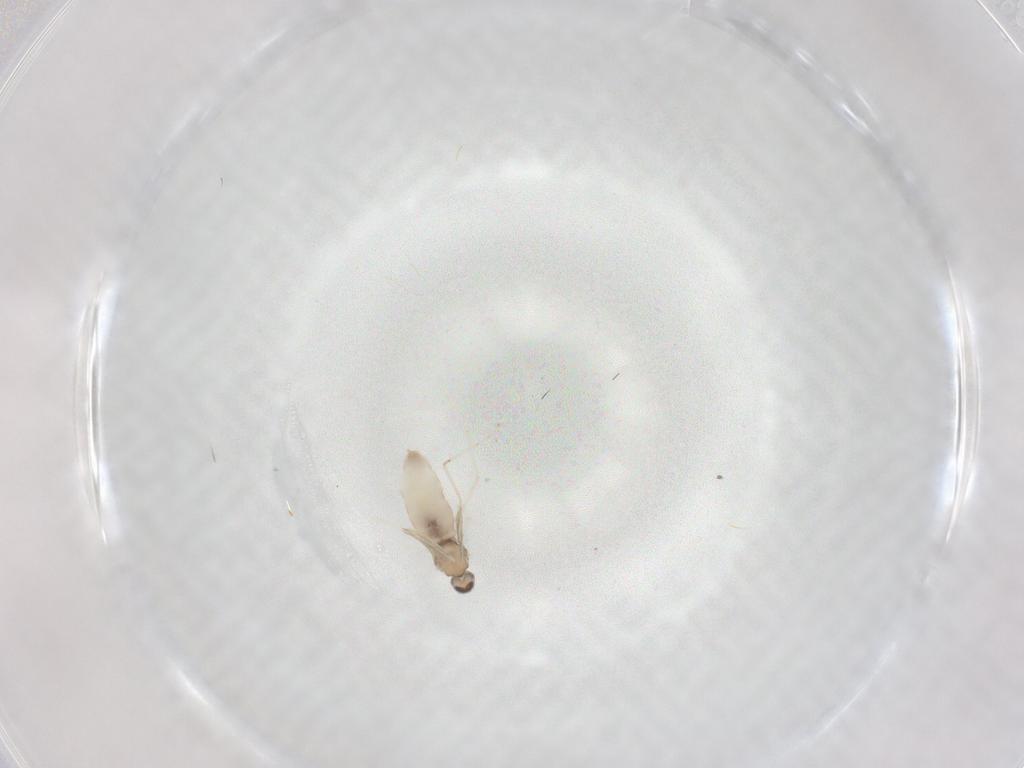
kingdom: Animalia
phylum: Arthropoda
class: Insecta
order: Diptera
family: Cecidomyiidae
